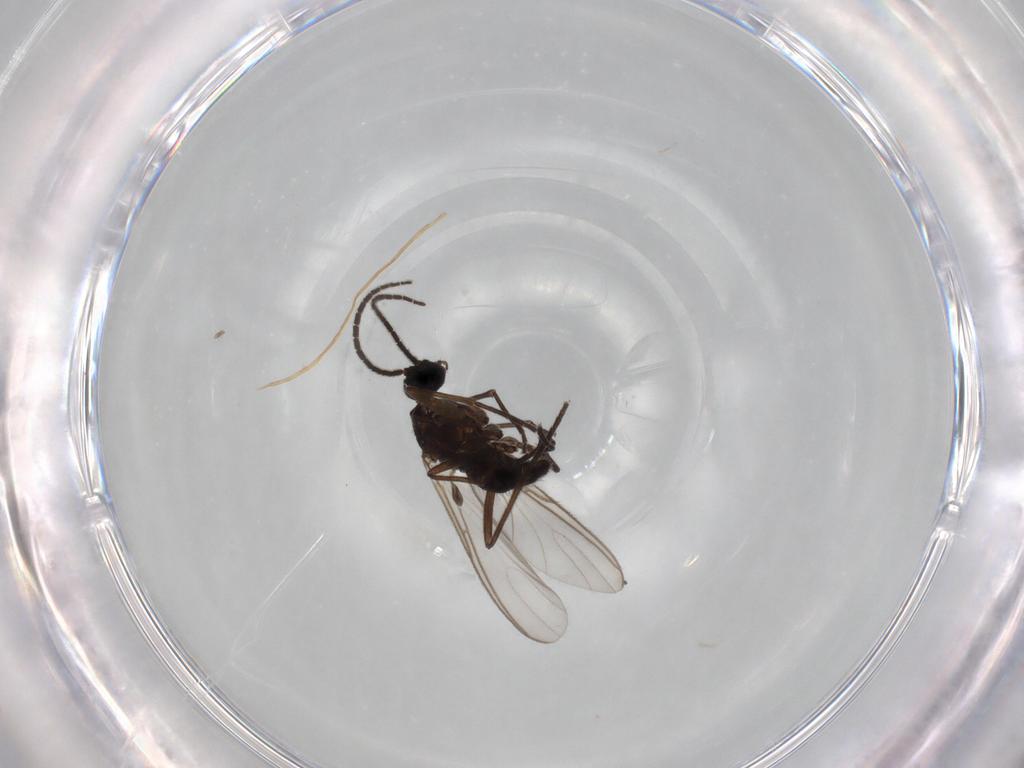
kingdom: Animalia
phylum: Arthropoda
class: Insecta
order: Diptera
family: Sciaridae
